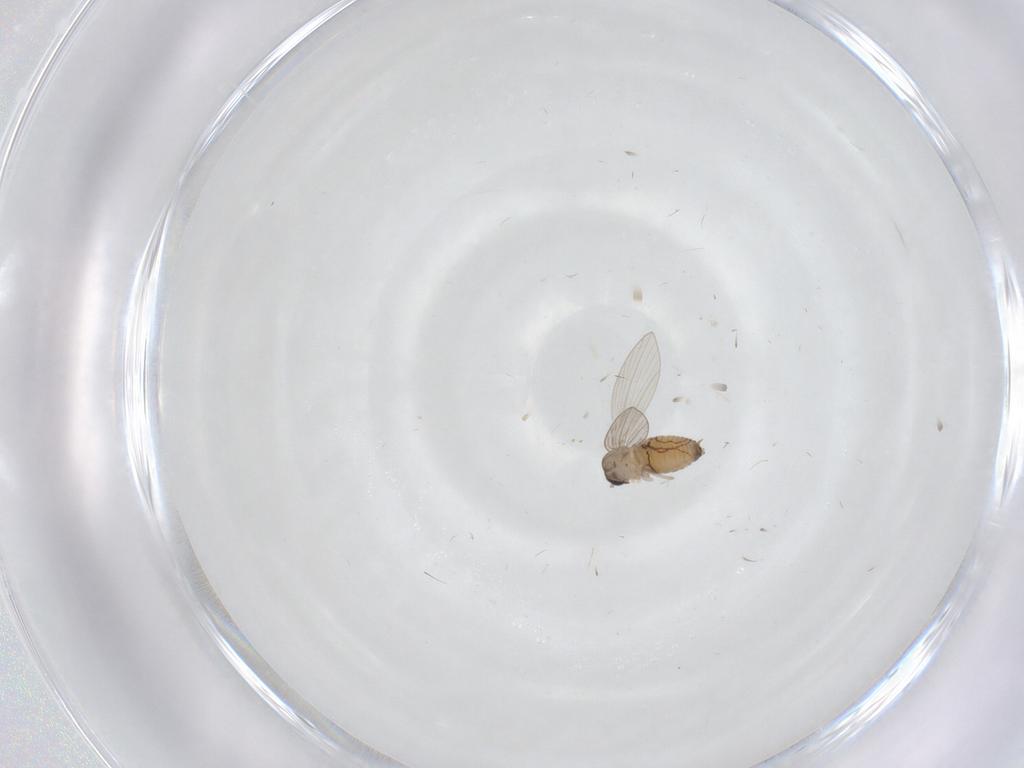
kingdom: Animalia
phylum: Arthropoda
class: Insecta
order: Diptera
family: Psychodidae
